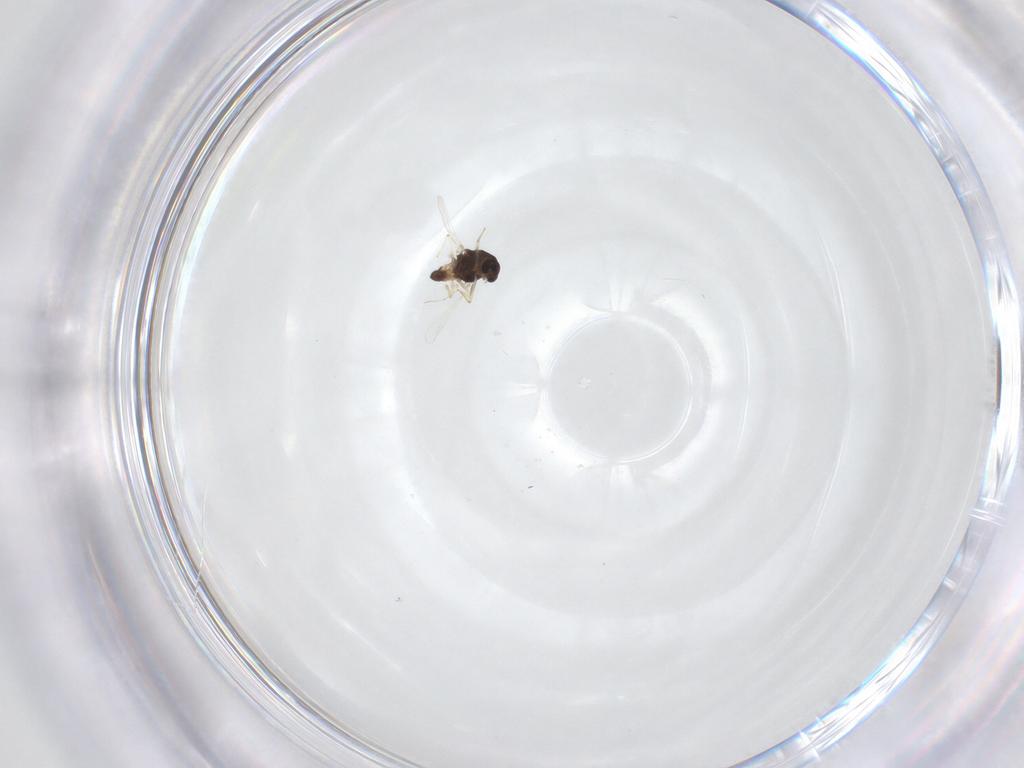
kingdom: Animalia
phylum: Arthropoda
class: Insecta
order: Diptera
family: Chironomidae
